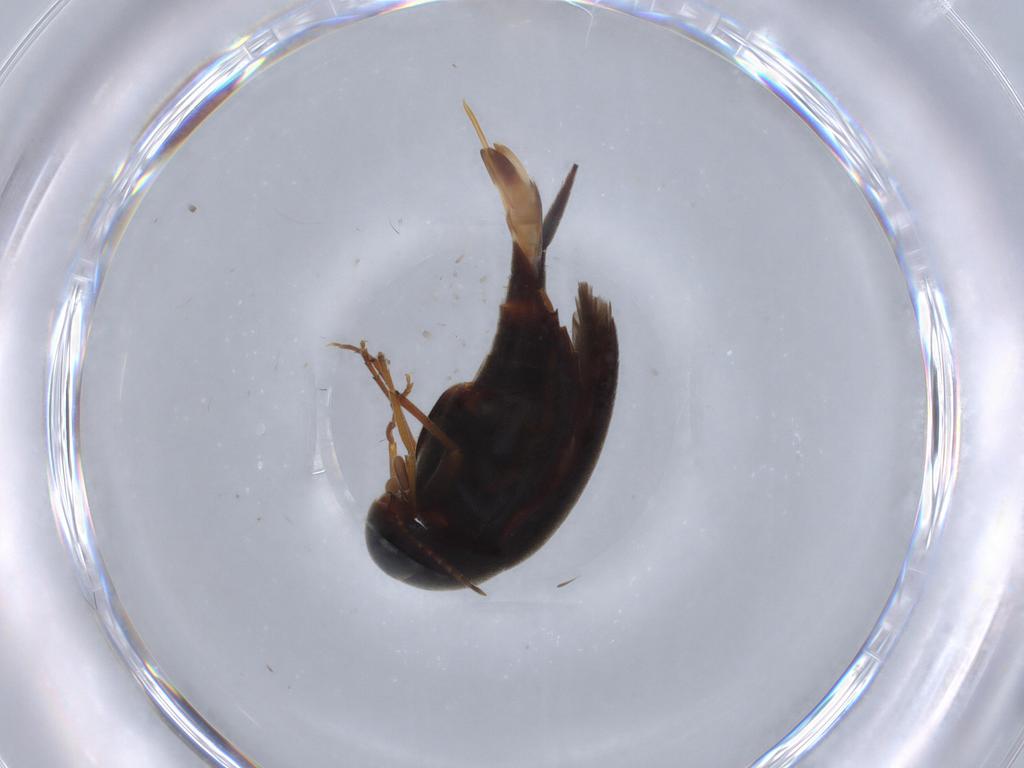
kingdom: Animalia
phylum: Arthropoda
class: Insecta
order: Coleoptera
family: Mordellidae
